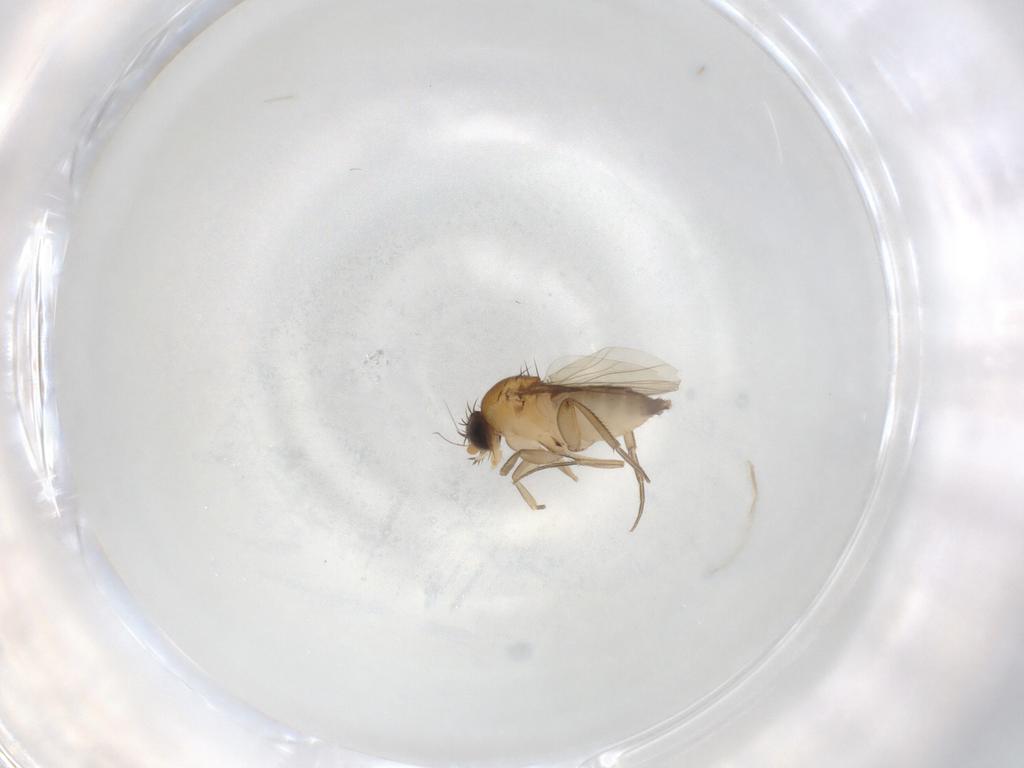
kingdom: Animalia
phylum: Arthropoda
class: Insecta
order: Diptera
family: Phoridae
